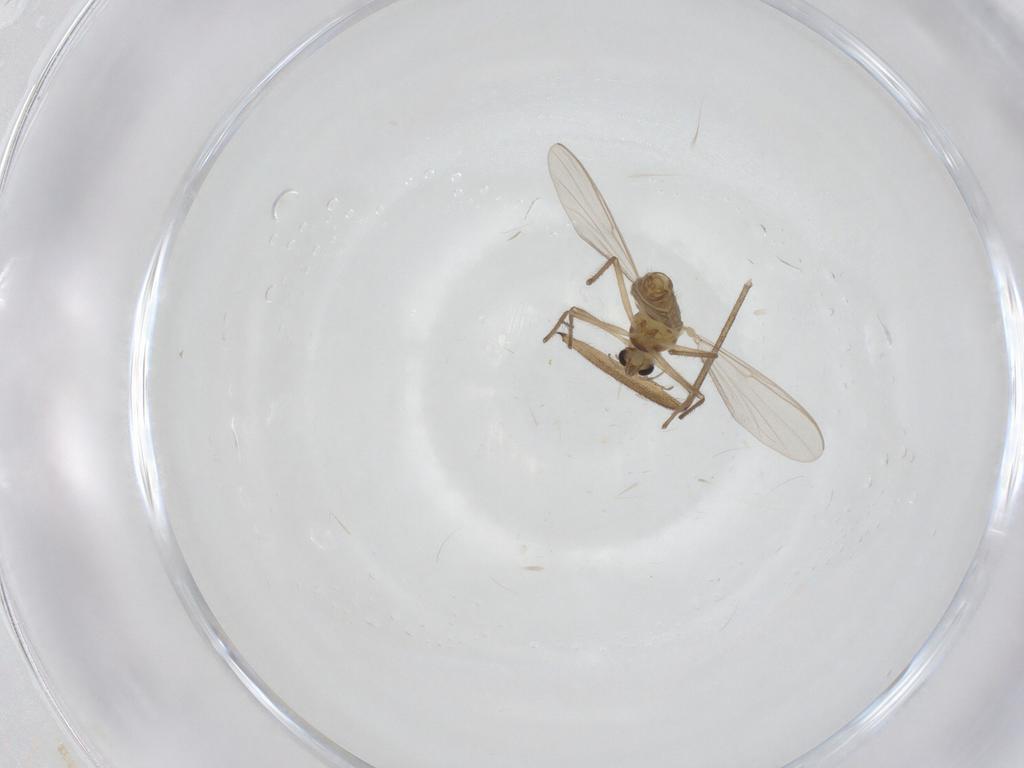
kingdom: Animalia
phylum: Arthropoda
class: Insecta
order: Diptera
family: Chironomidae
